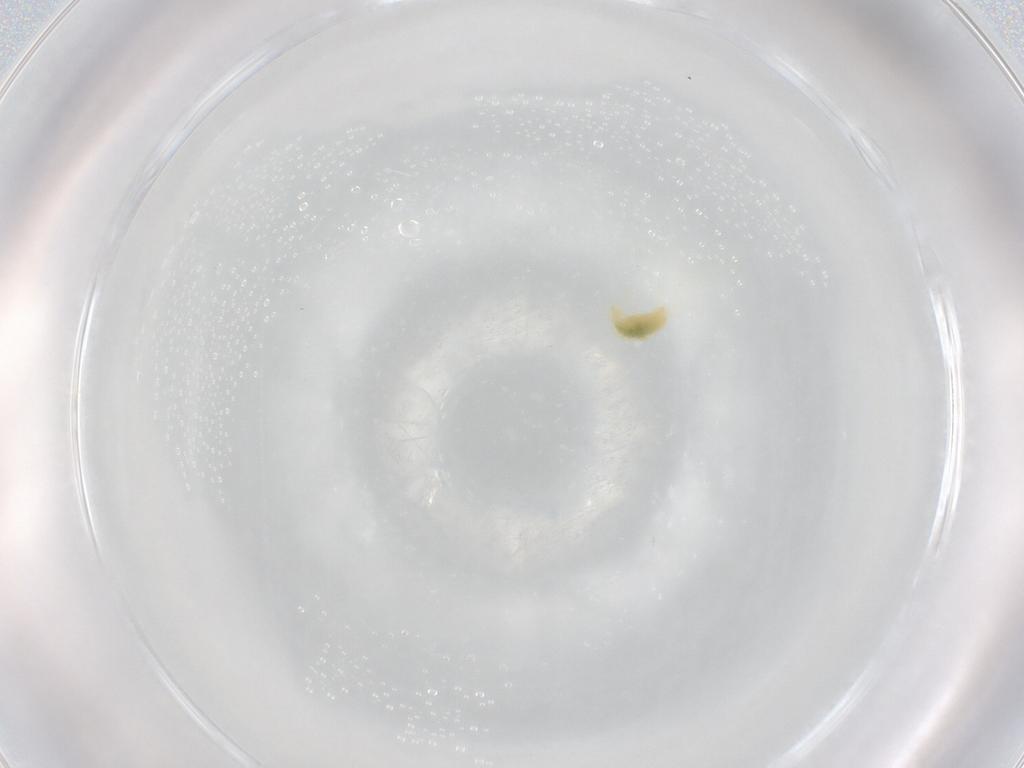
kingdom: Animalia
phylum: Arthropoda
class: Arachnida
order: Trombidiformes
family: Tetranychidae
